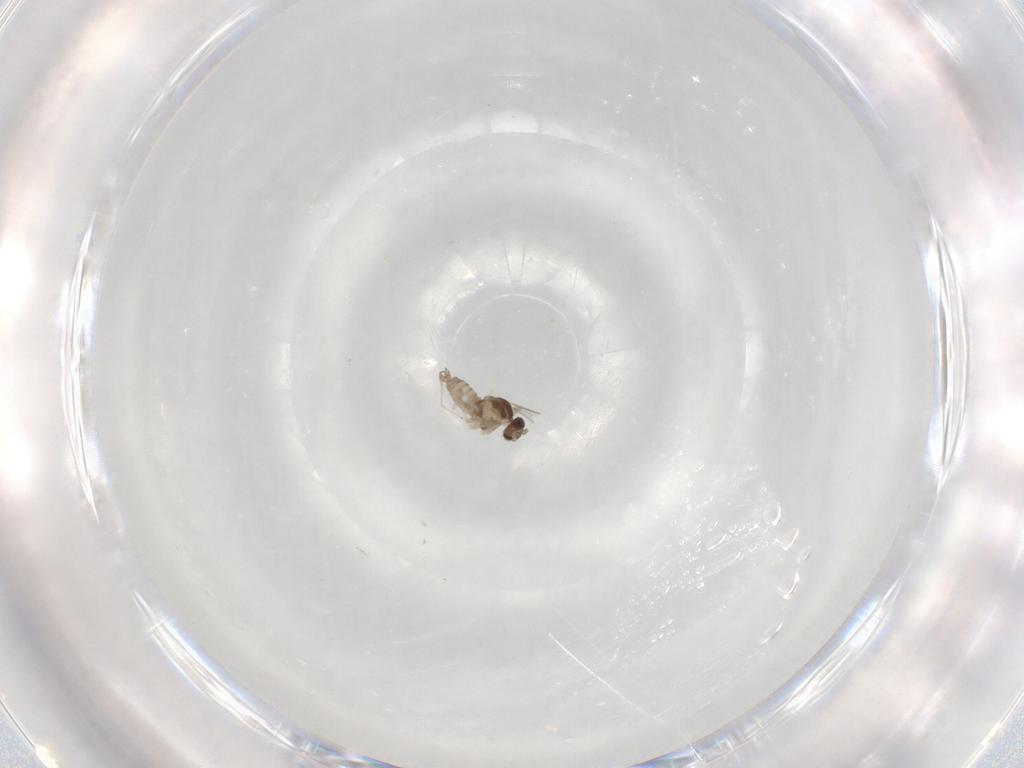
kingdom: Animalia
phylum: Arthropoda
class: Insecta
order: Diptera
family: Cecidomyiidae
